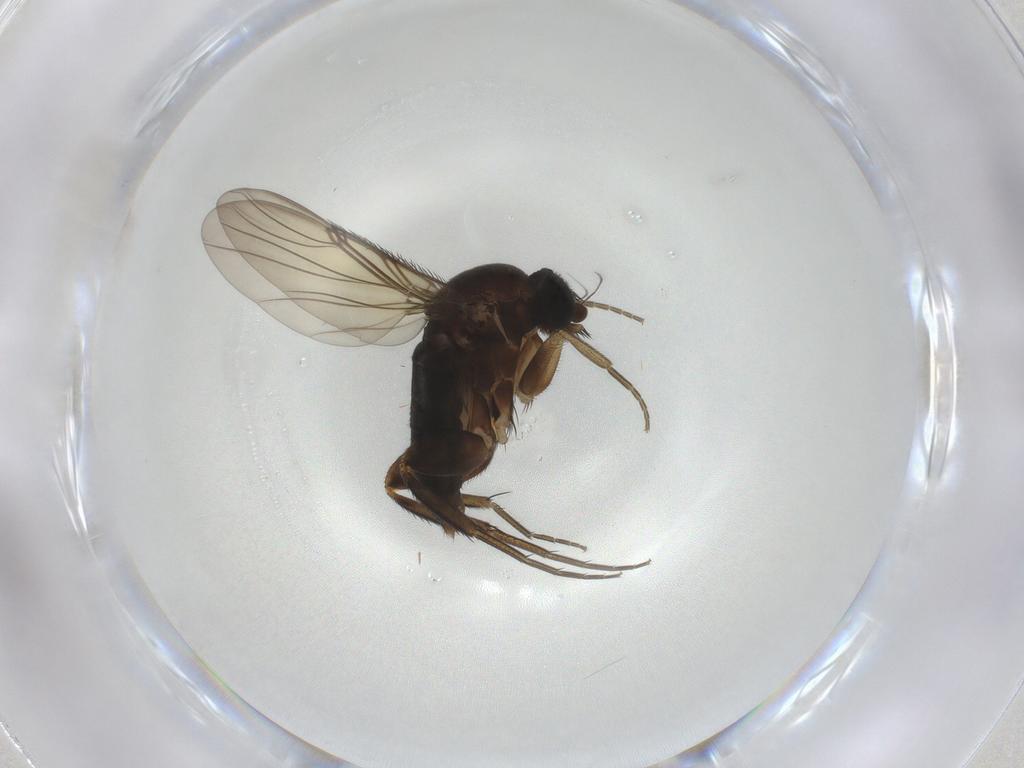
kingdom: Animalia
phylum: Arthropoda
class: Insecta
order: Diptera
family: Phoridae
